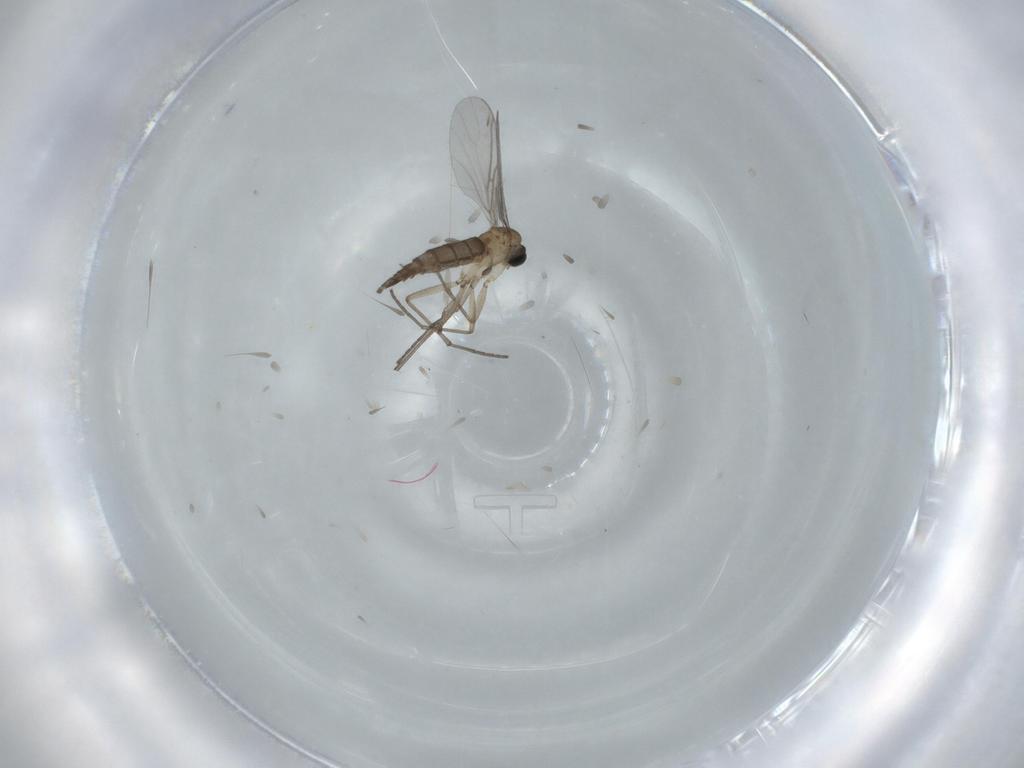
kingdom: Animalia
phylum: Arthropoda
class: Insecta
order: Diptera
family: Sciaridae
